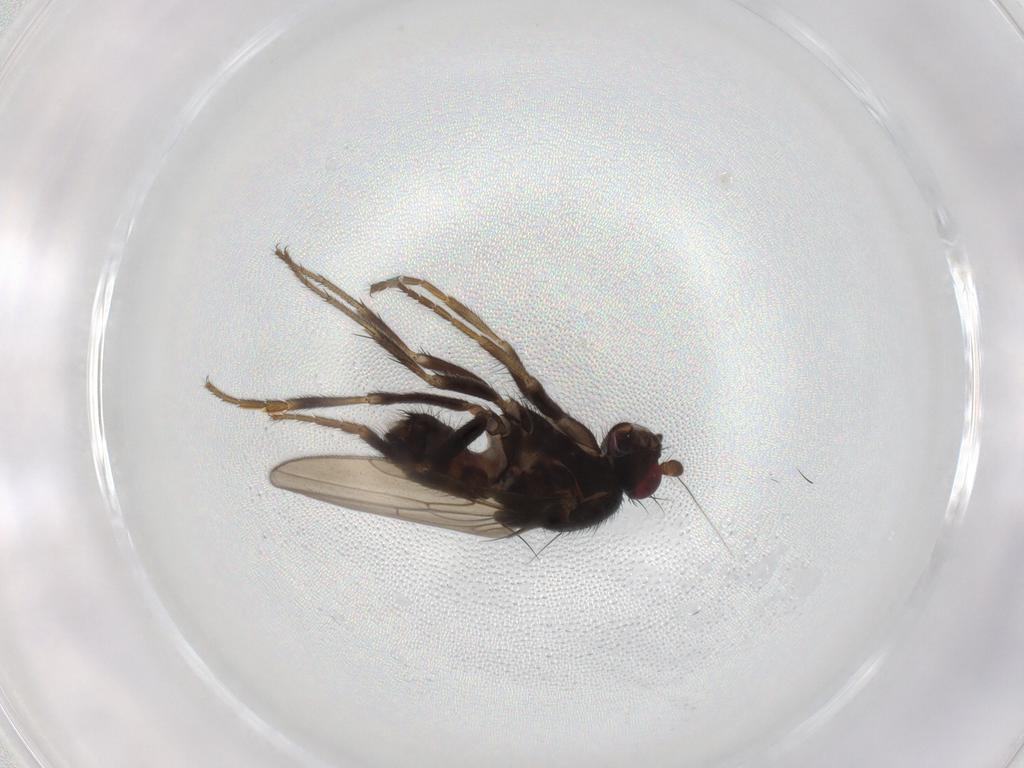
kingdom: Animalia
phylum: Arthropoda
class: Insecta
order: Diptera
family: Sphaeroceridae
